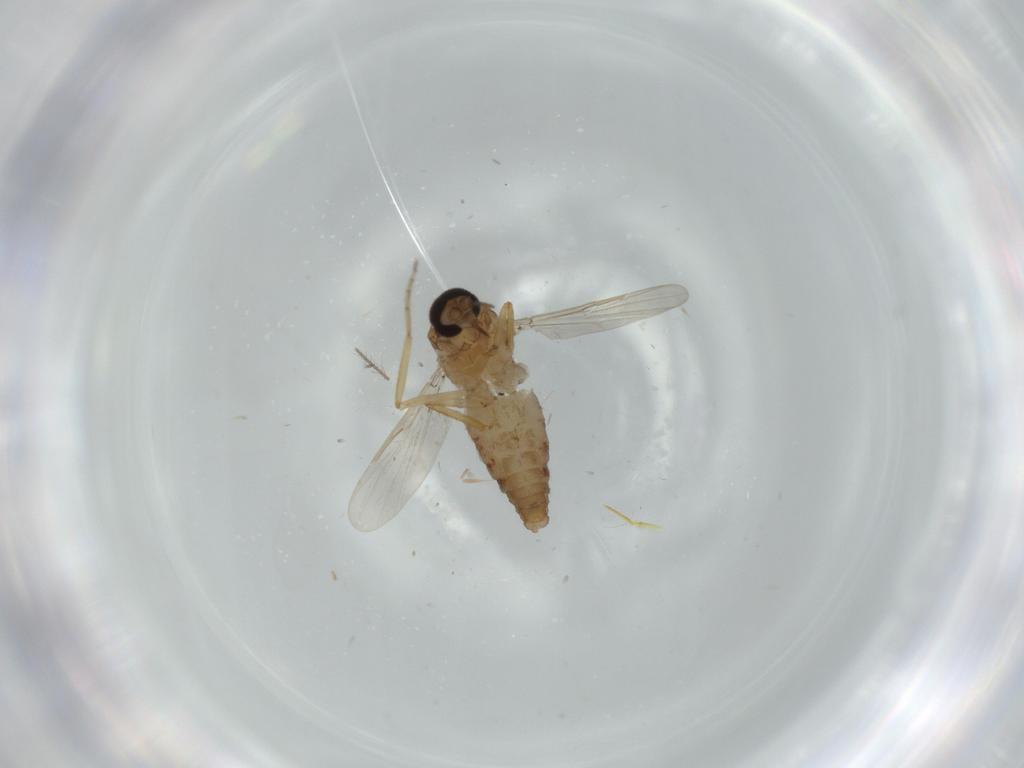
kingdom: Animalia
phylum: Arthropoda
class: Insecta
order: Diptera
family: Ceratopogonidae
